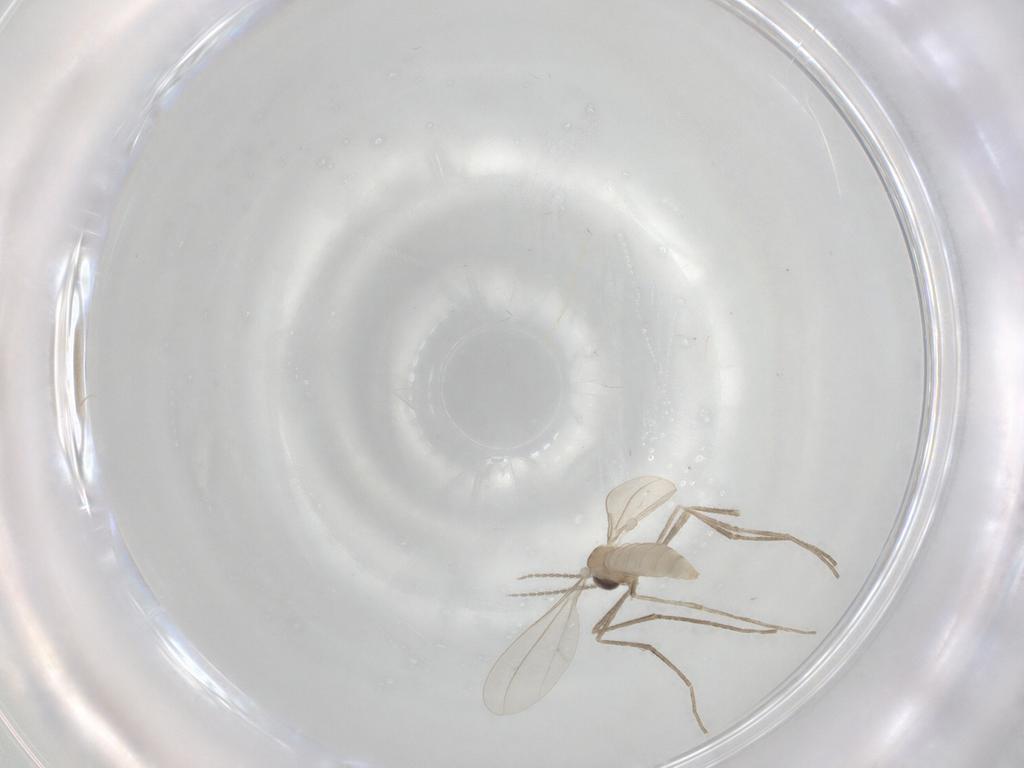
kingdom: Animalia
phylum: Arthropoda
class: Insecta
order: Diptera
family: Cecidomyiidae
